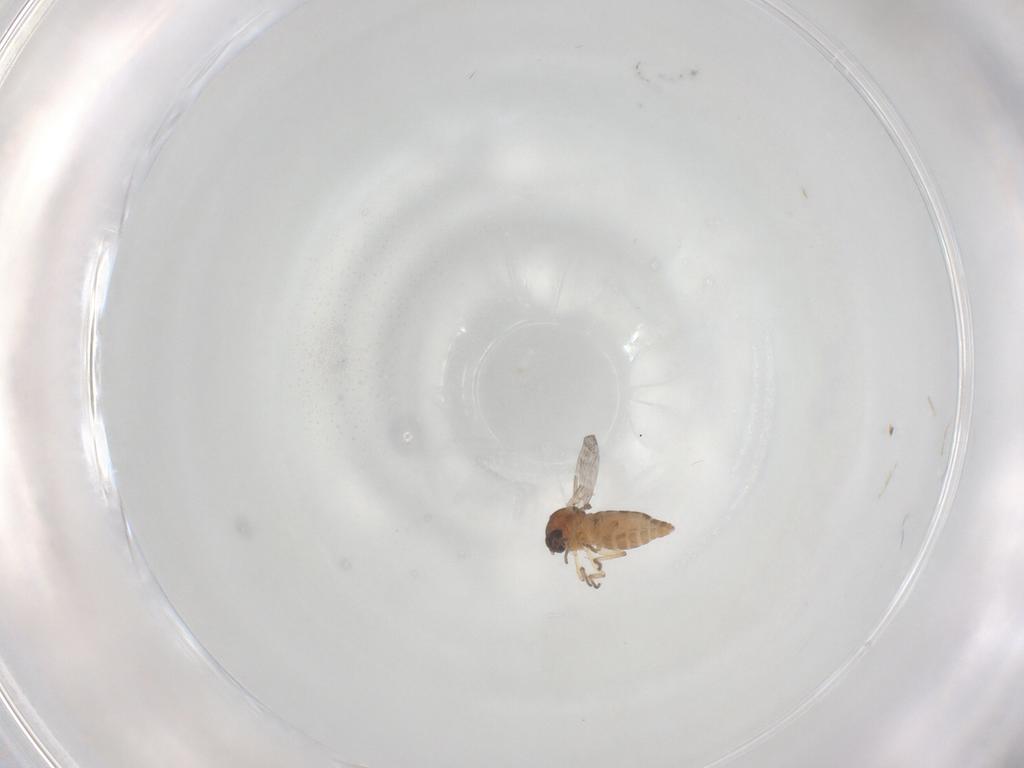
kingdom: Animalia
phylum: Arthropoda
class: Insecta
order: Diptera
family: Ceratopogonidae
